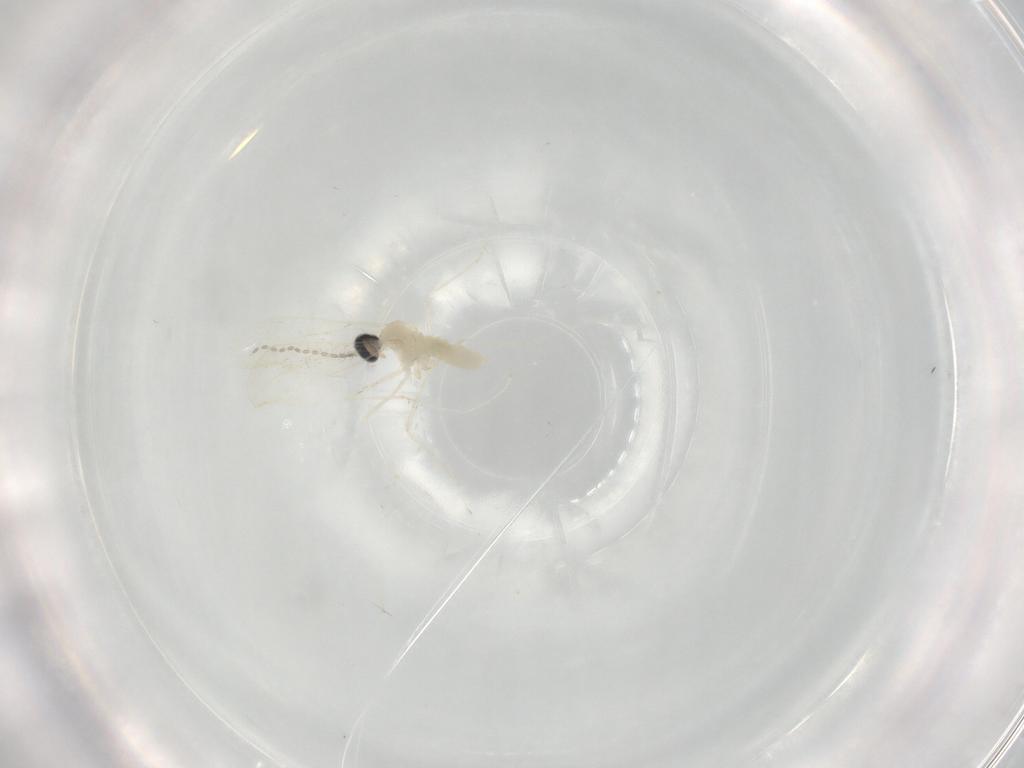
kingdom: Animalia
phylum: Arthropoda
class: Insecta
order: Diptera
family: Cecidomyiidae
